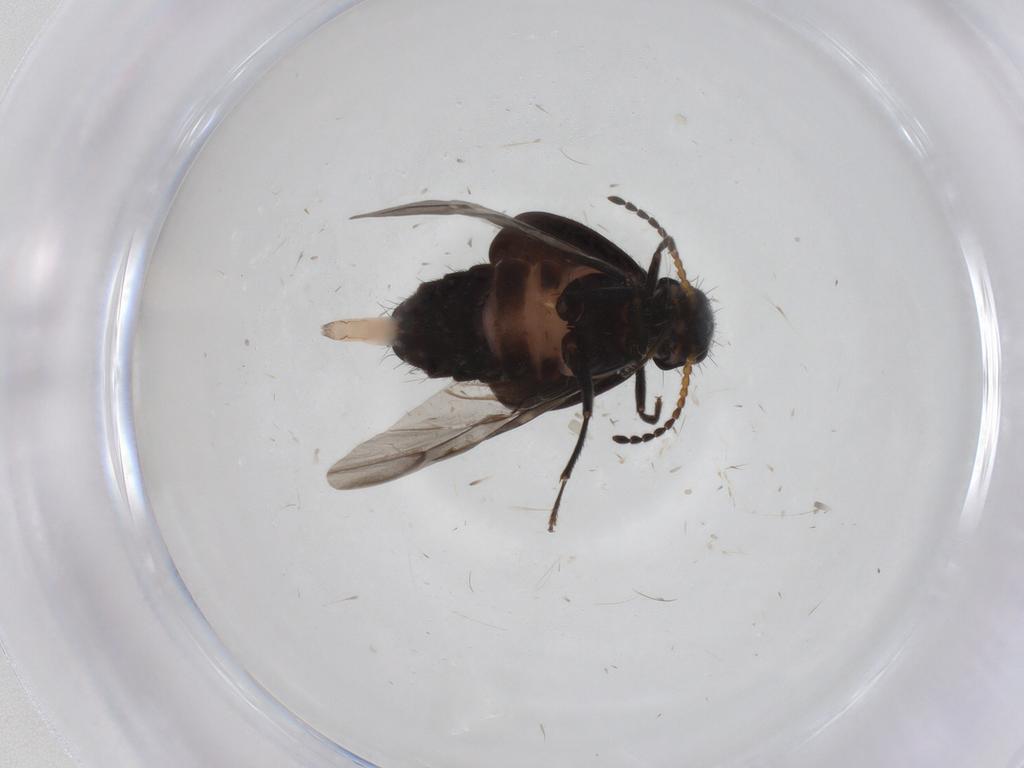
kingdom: Animalia
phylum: Arthropoda
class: Insecta
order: Coleoptera
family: Melyridae
